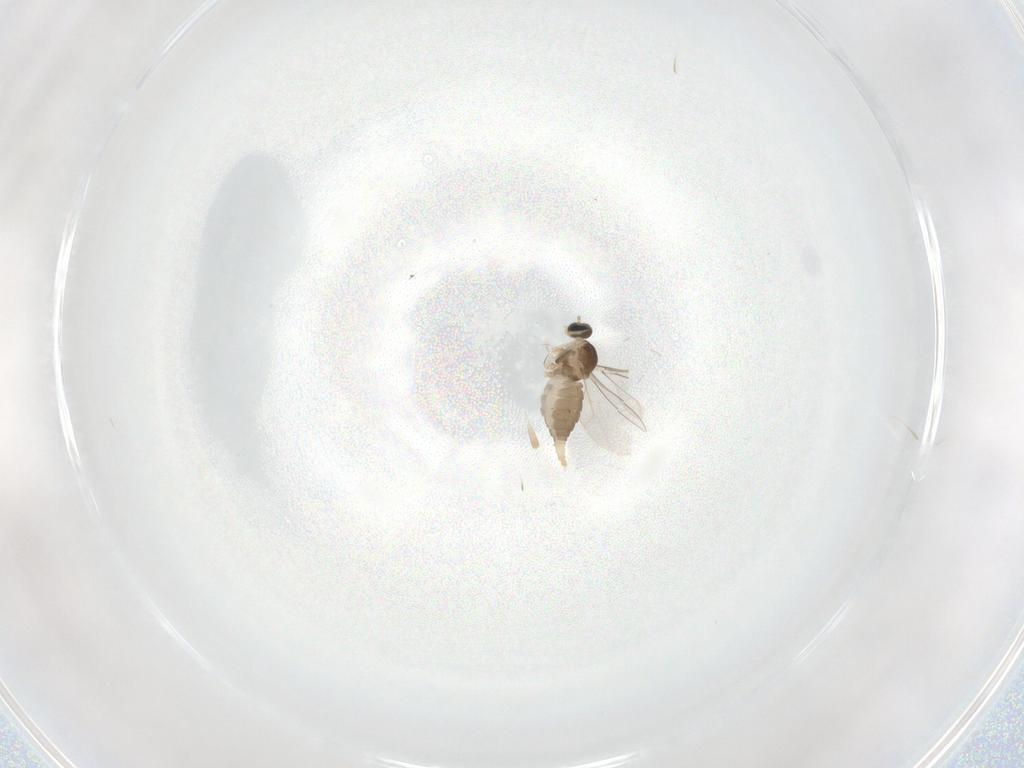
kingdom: Animalia
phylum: Arthropoda
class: Insecta
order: Diptera
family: Cecidomyiidae
